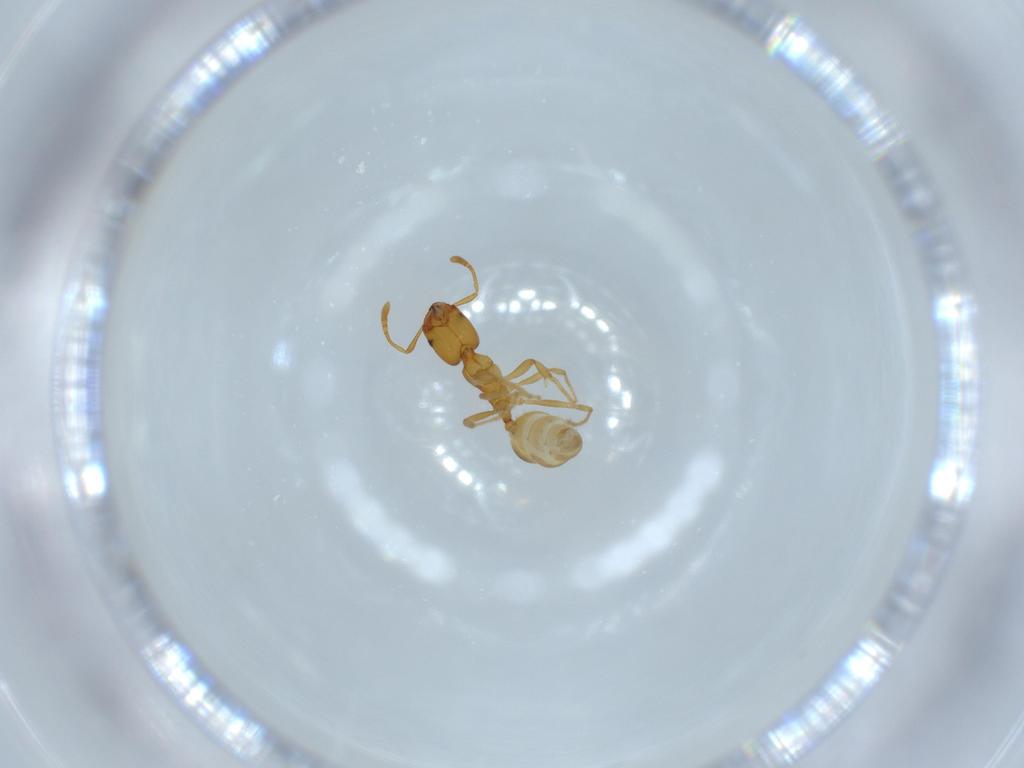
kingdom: Animalia
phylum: Arthropoda
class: Insecta
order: Hymenoptera
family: Formicidae
